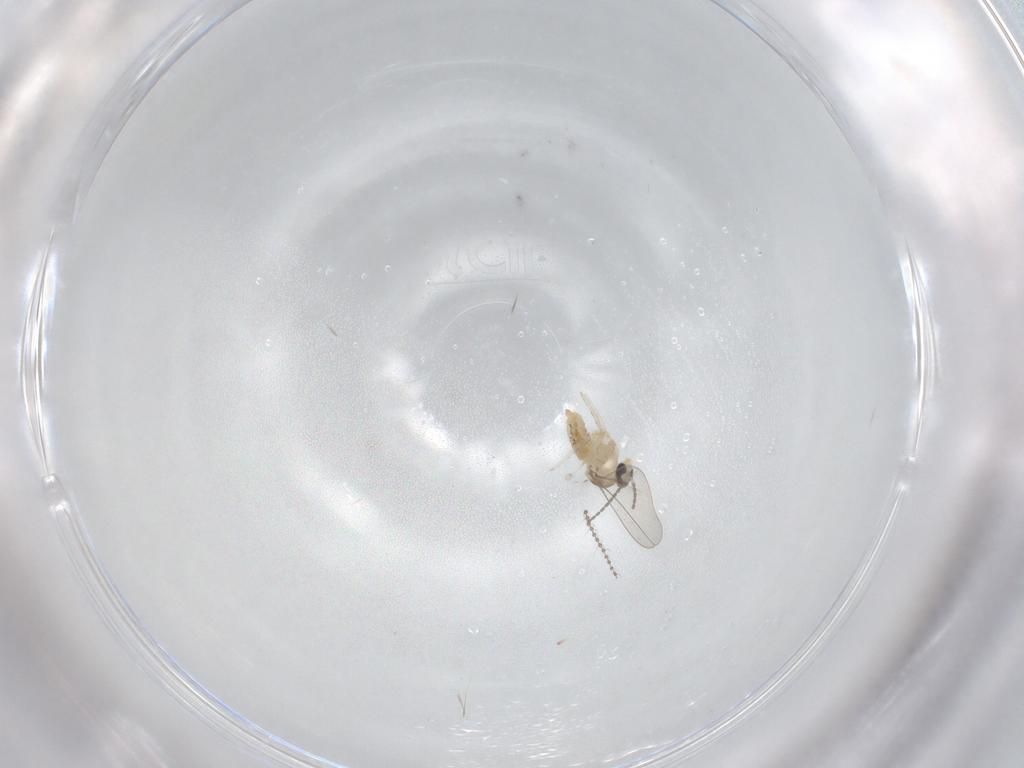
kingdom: Animalia
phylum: Arthropoda
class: Insecta
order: Diptera
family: Cecidomyiidae
